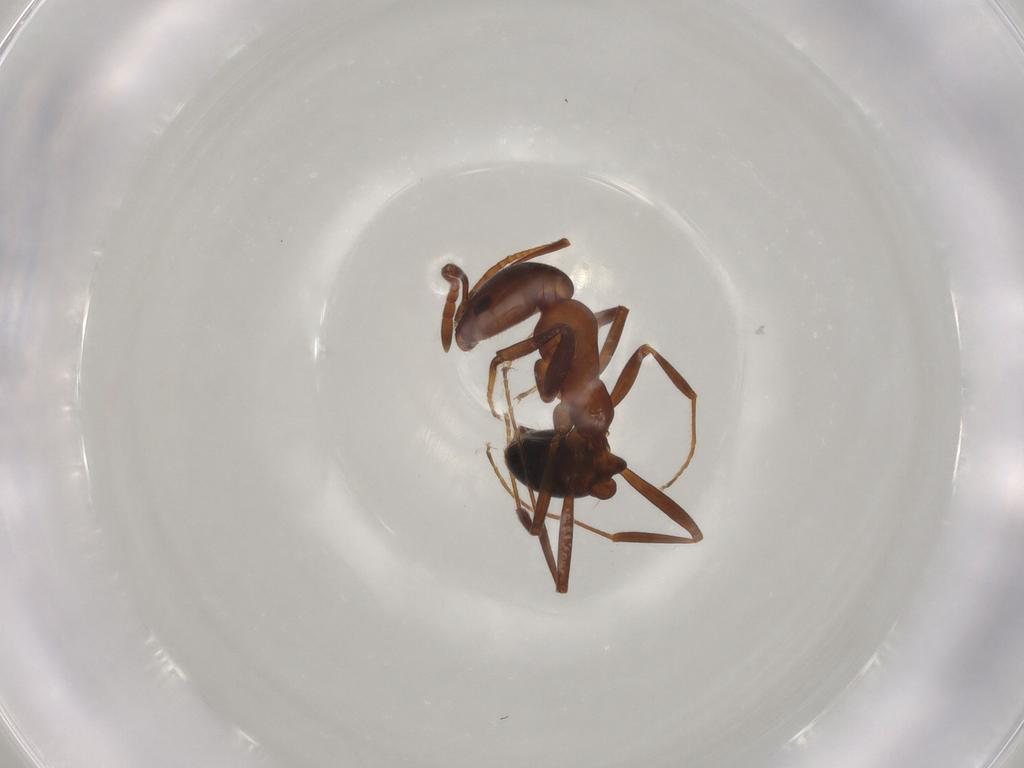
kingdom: Animalia
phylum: Arthropoda
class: Insecta
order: Hymenoptera
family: Formicidae
